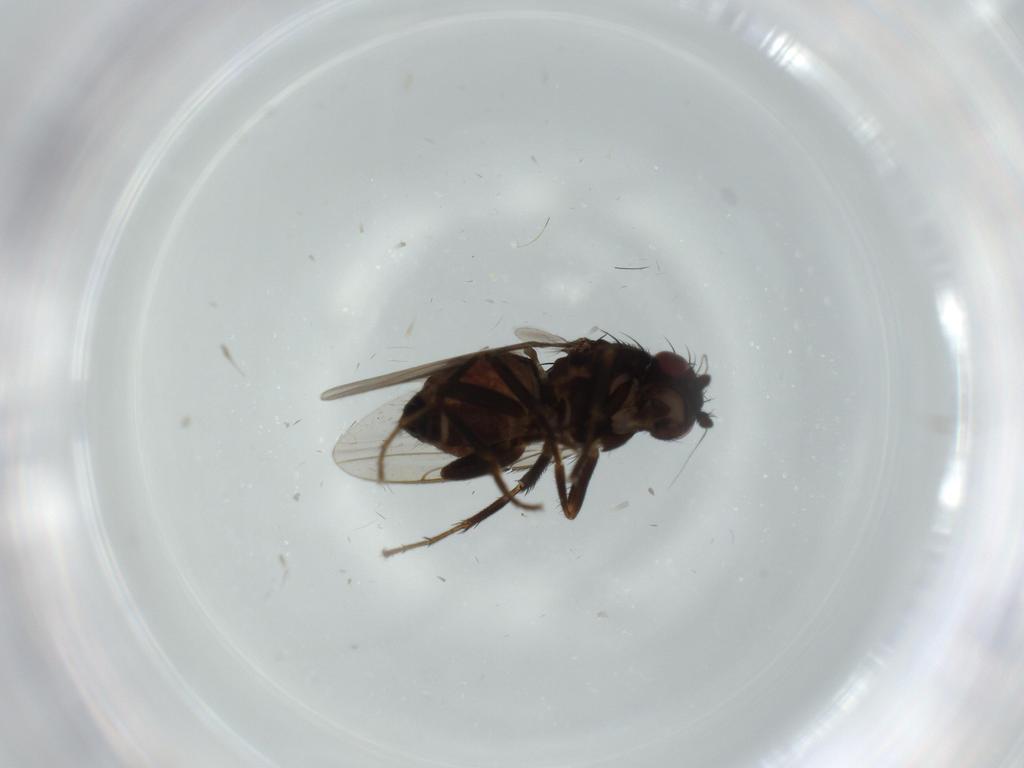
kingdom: Animalia
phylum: Arthropoda
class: Insecta
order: Diptera
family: Sphaeroceridae
